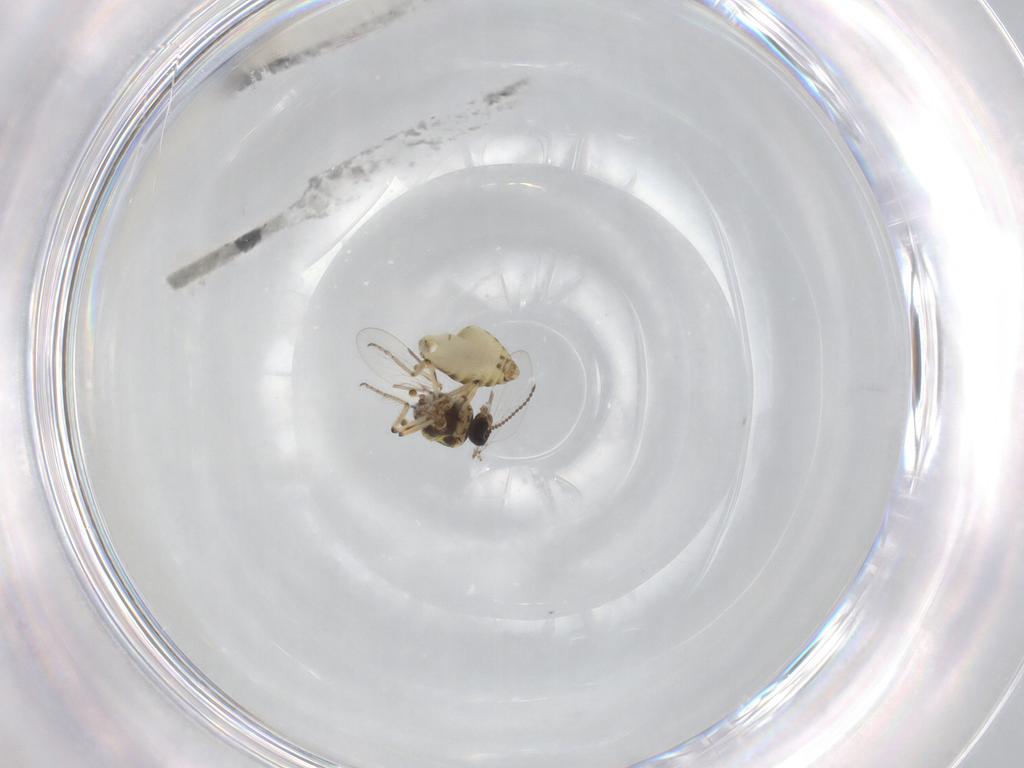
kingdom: Animalia
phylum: Arthropoda
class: Insecta
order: Diptera
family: Ceratopogonidae
